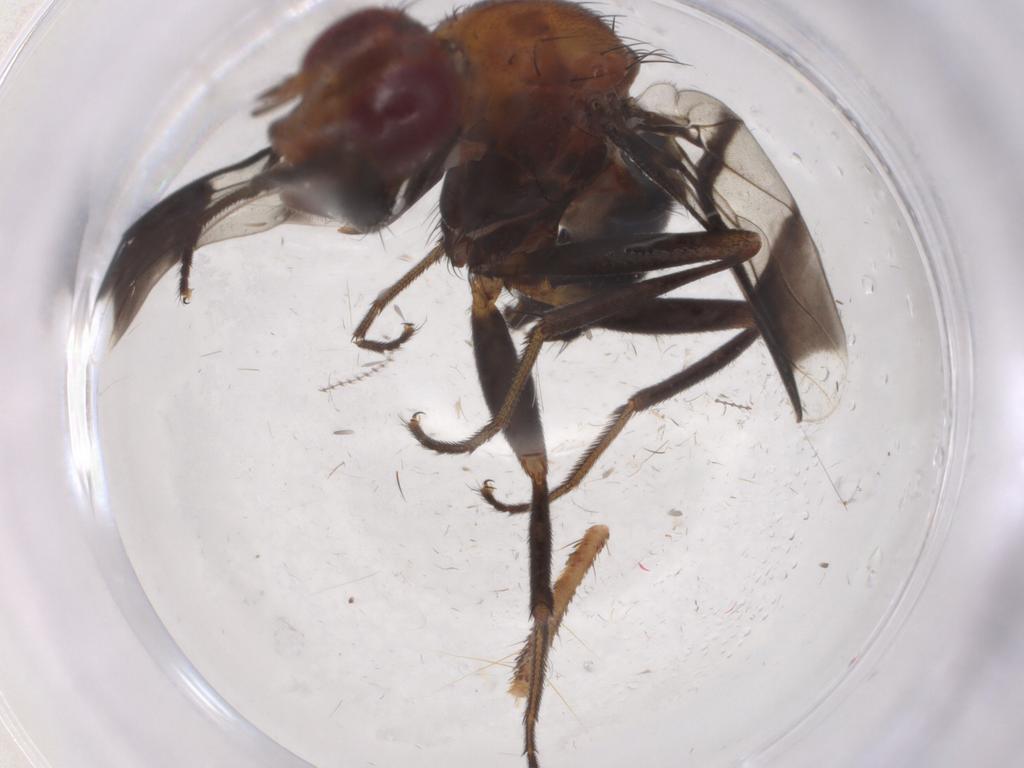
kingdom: Animalia
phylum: Arthropoda
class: Insecta
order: Diptera
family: Richardiidae
